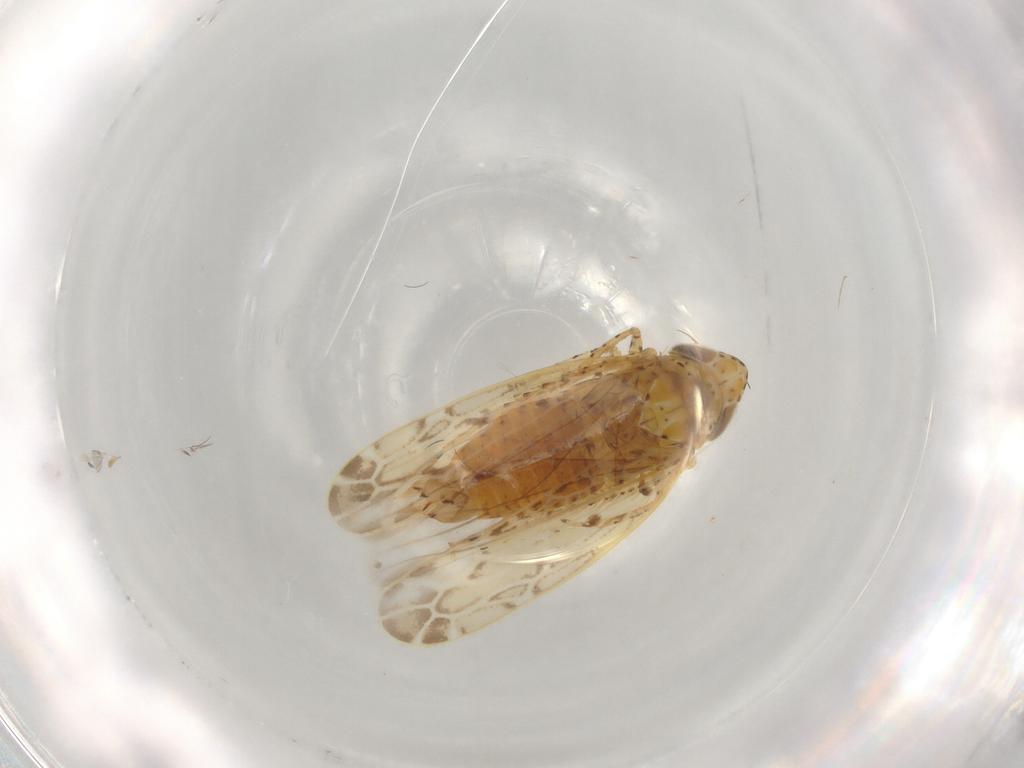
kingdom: Animalia
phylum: Arthropoda
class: Insecta
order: Hemiptera
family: Cicadellidae
